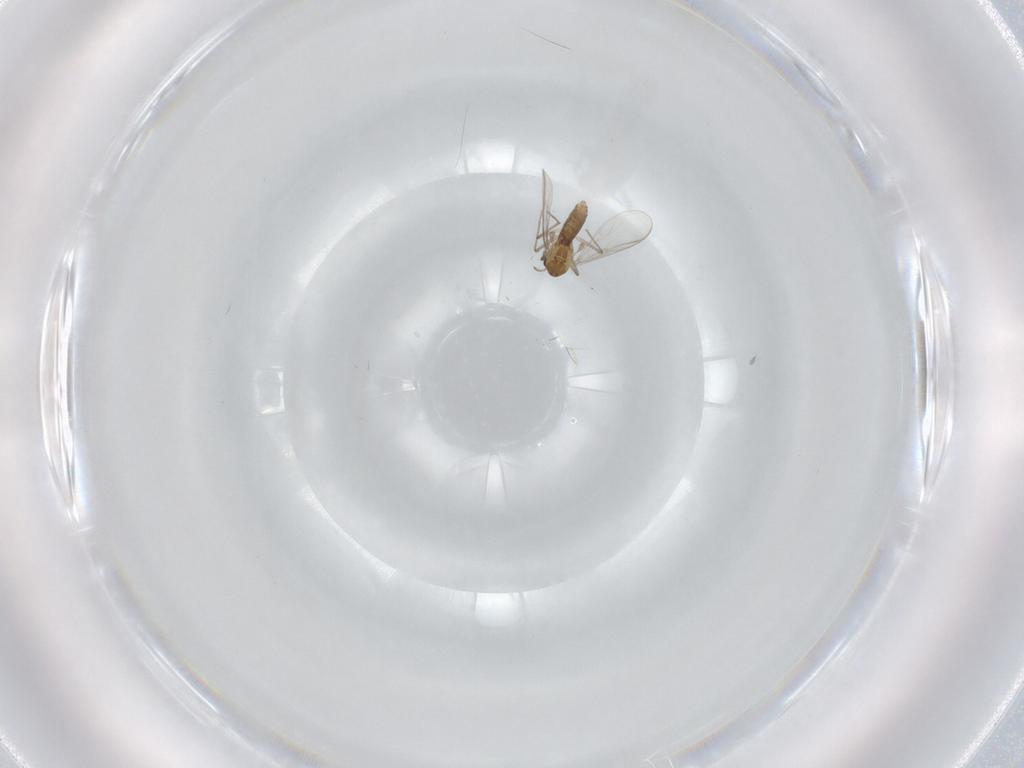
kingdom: Animalia
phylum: Arthropoda
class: Insecta
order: Diptera
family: Chironomidae
